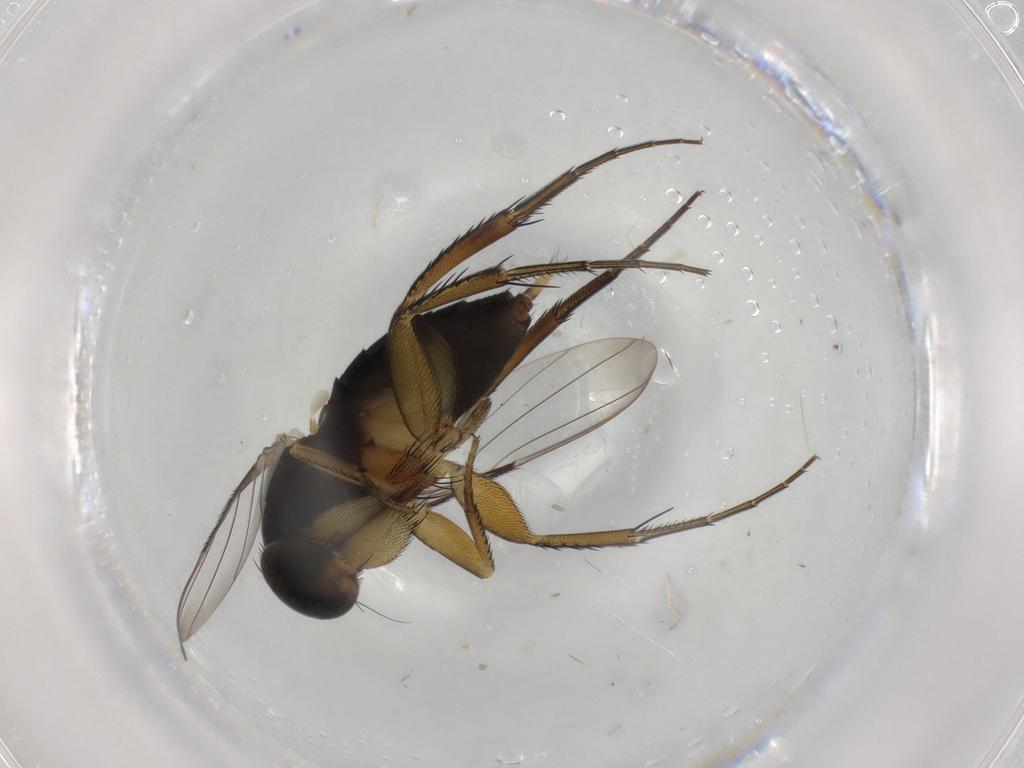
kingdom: Animalia
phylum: Arthropoda
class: Insecta
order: Diptera
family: Phoridae
